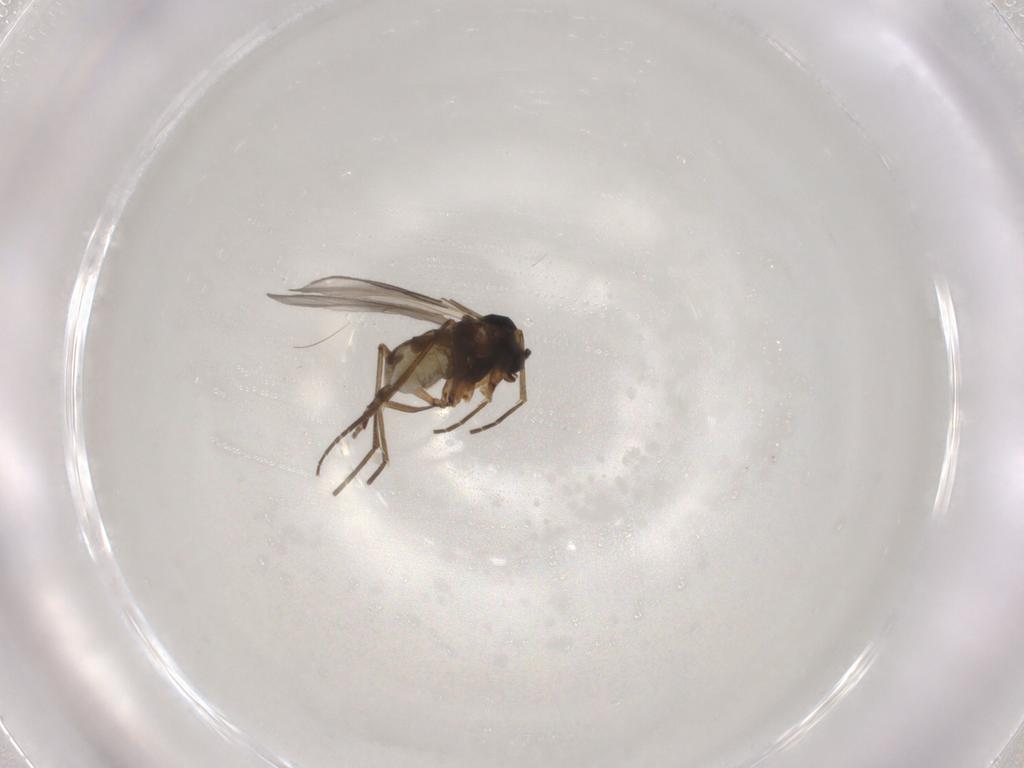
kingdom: Animalia
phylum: Arthropoda
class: Insecta
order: Diptera
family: Sciaridae
